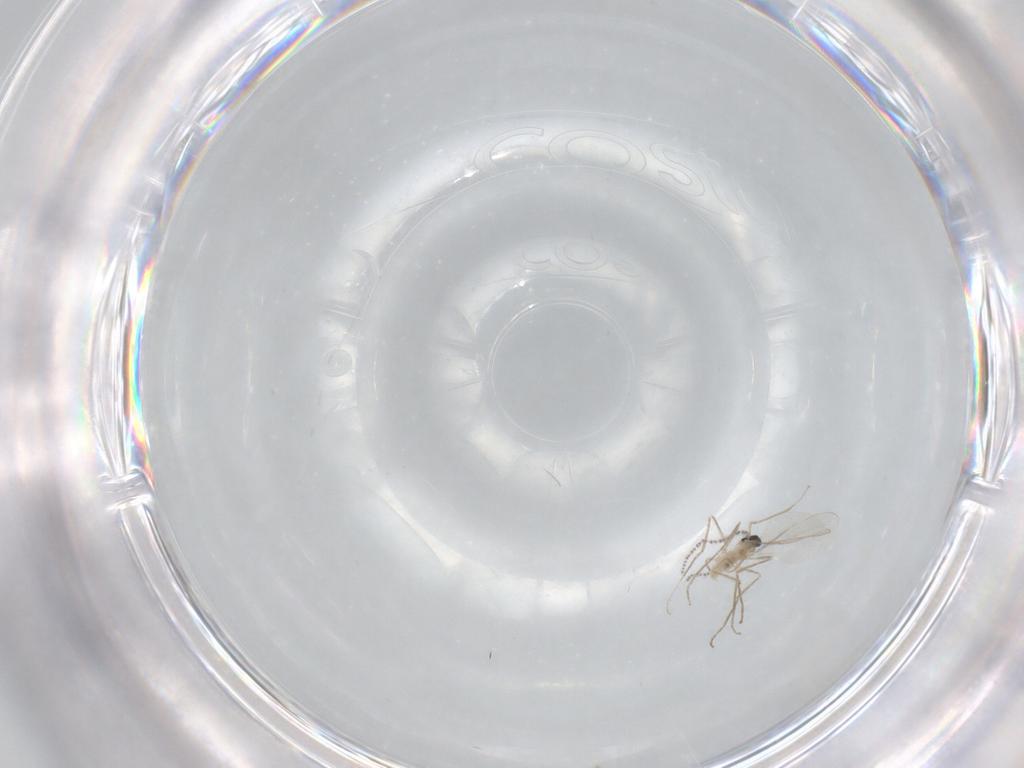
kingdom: Animalia
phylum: Arthropoda
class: Insecta
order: Diptera
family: Cecidomyiidae
